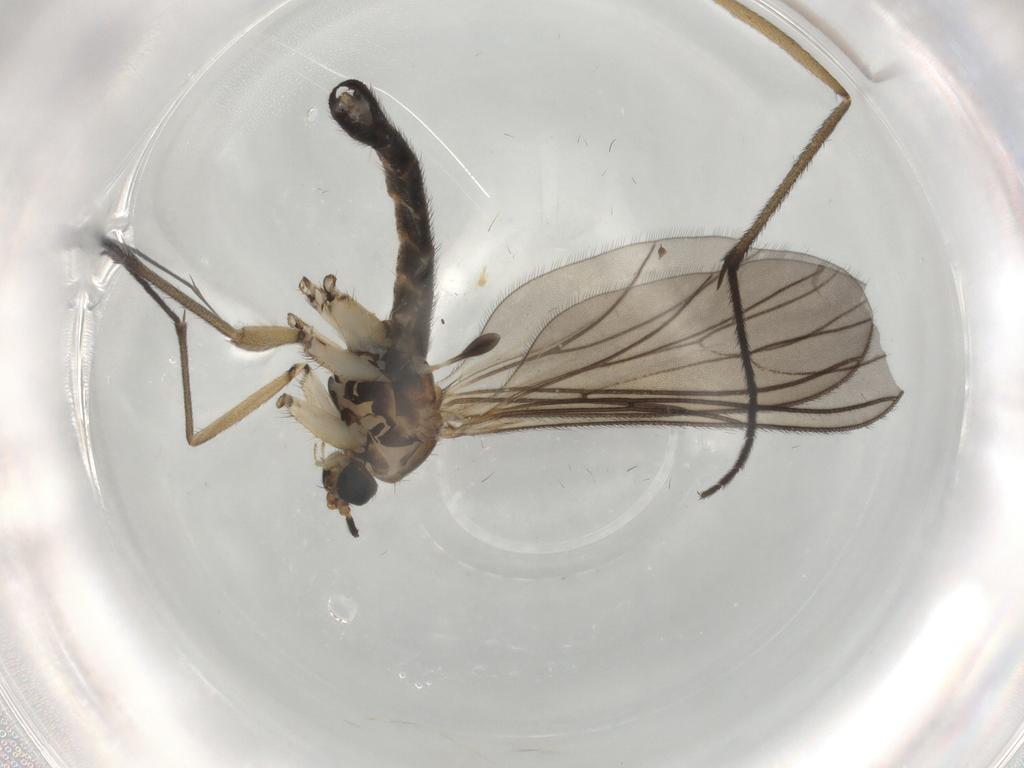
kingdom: Animalia
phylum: Arthropoda
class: Insecta
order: Diptera
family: Sciaridae
